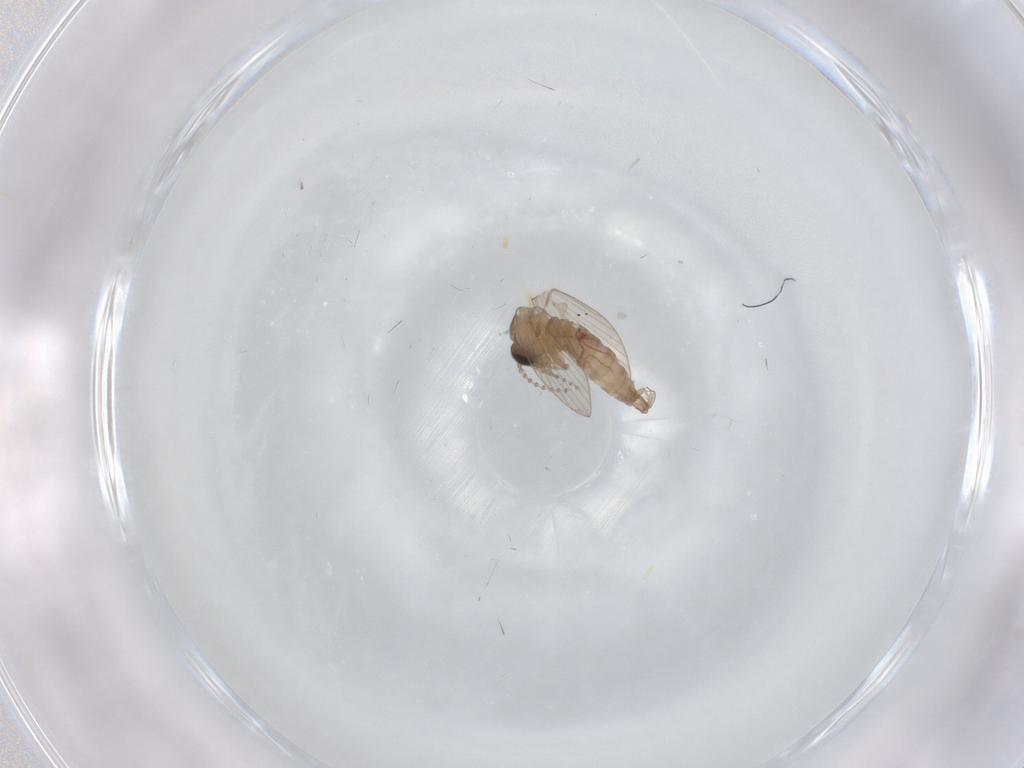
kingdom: Animalia
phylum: Arthropoda
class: Insecta
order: Diptera
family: Psychodidae
